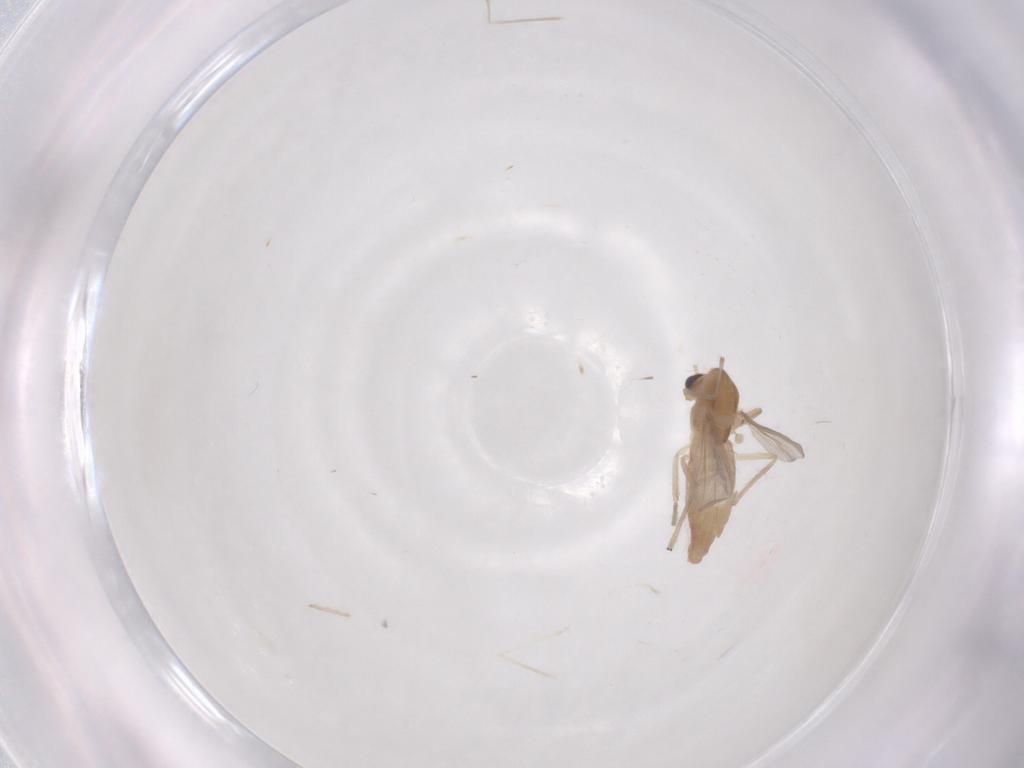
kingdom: Animalia
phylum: Arthropoda
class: Insecta
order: Diptera
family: Chironomidae
